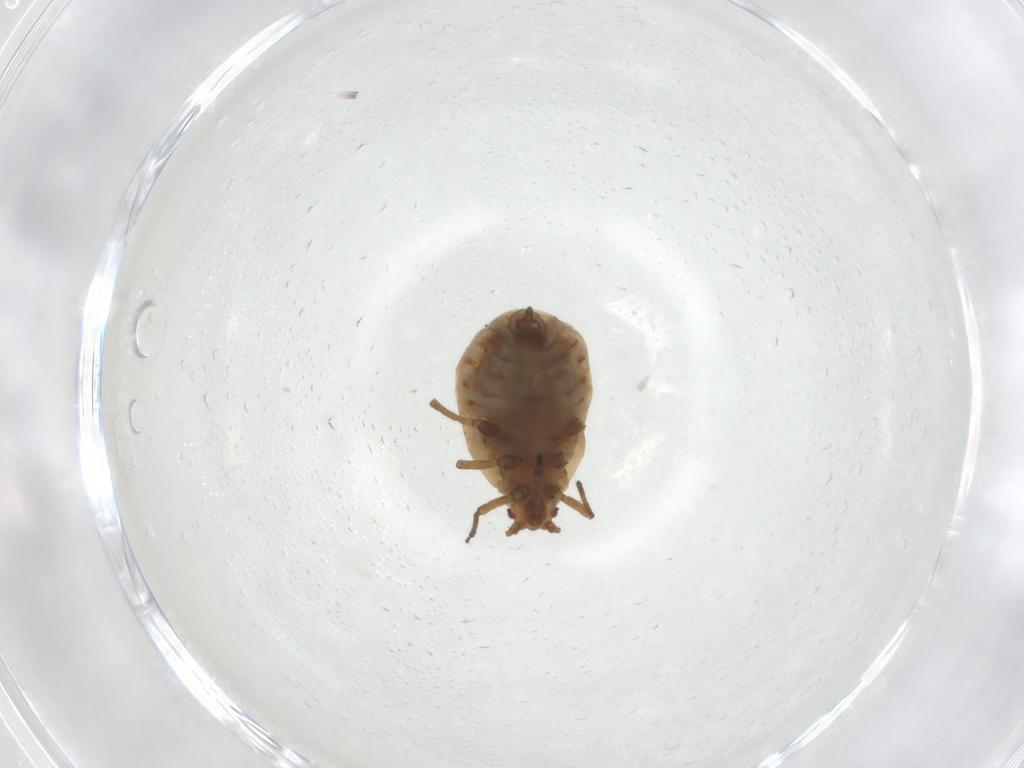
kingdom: Animalia
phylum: Arthropoda
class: Insecta
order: Hemiptera
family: Aphididae
